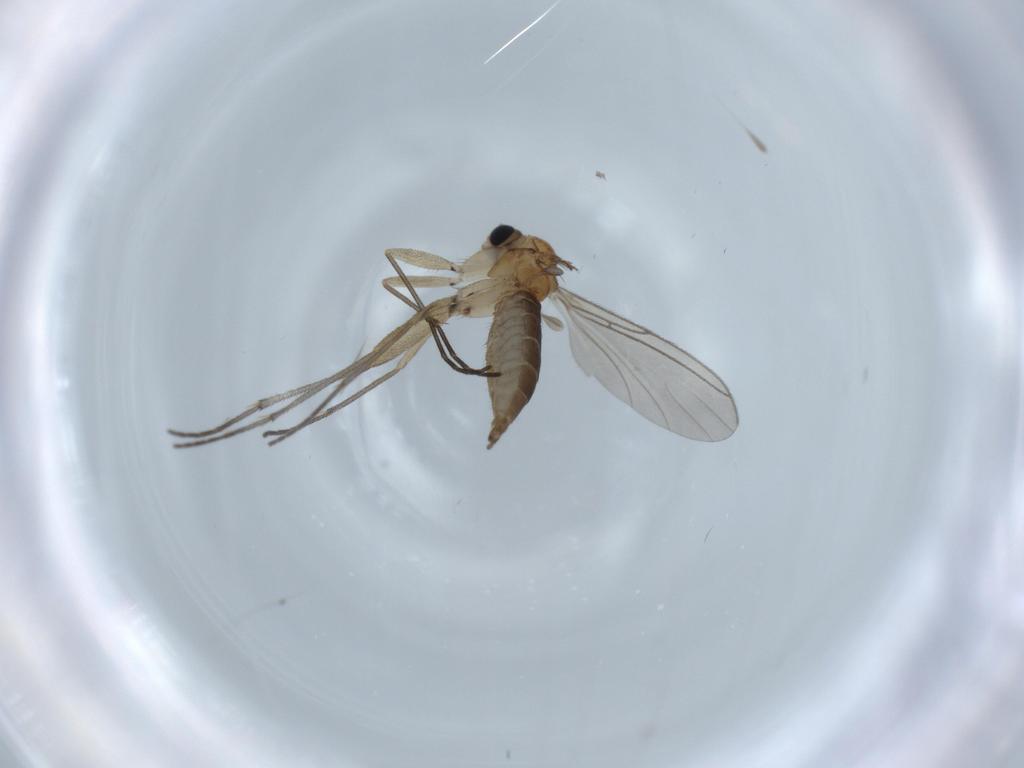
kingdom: Animalia
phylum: Arthropoda
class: Insecta
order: Diptera
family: Sciaridae
